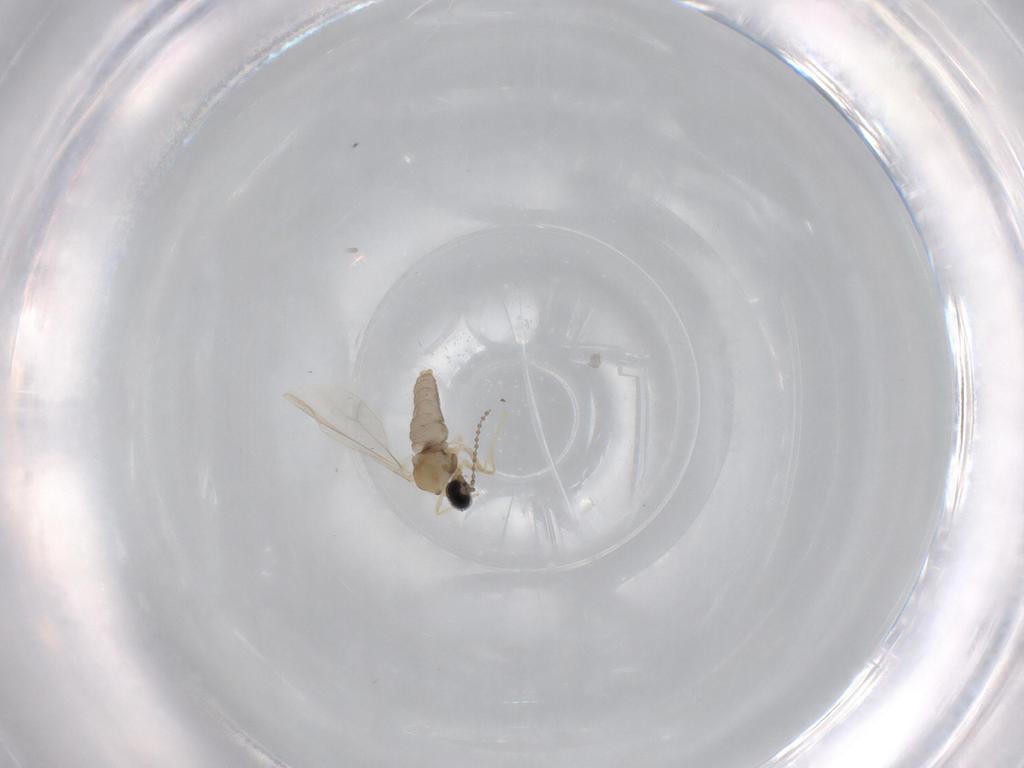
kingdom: Animalia
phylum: Arthropoda
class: Insecta
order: Diptera
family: Cecidomyiidae
